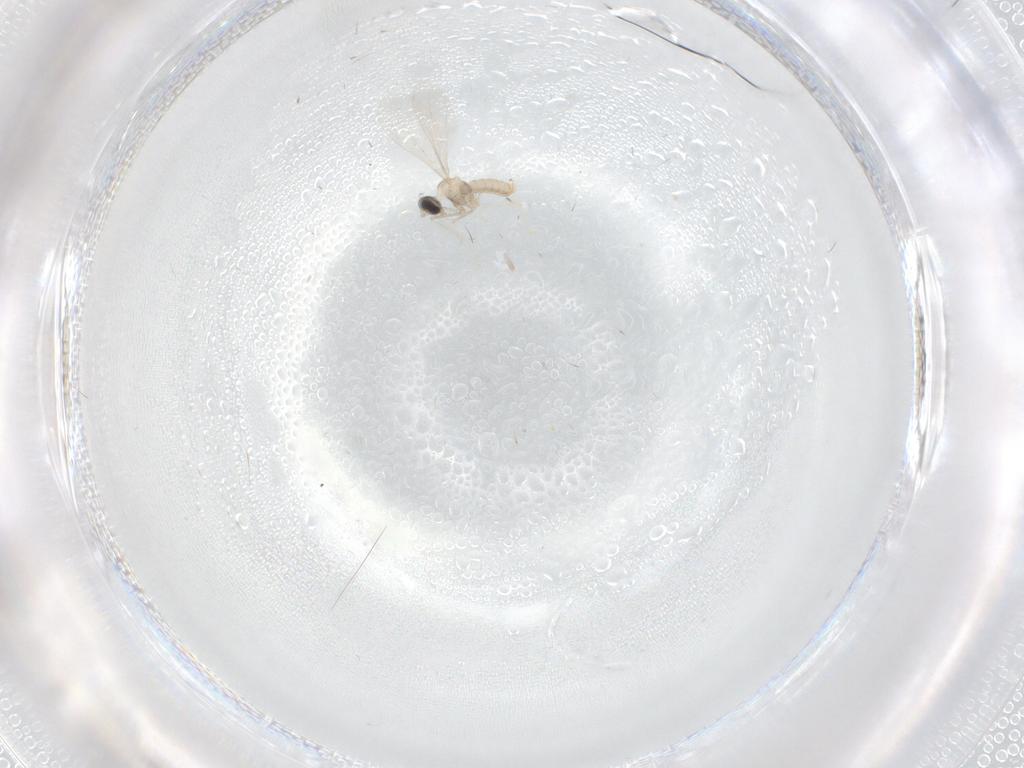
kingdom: Animalia
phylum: Arthropoda
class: Insecta
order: Diptera
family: Cecidomyiidae
